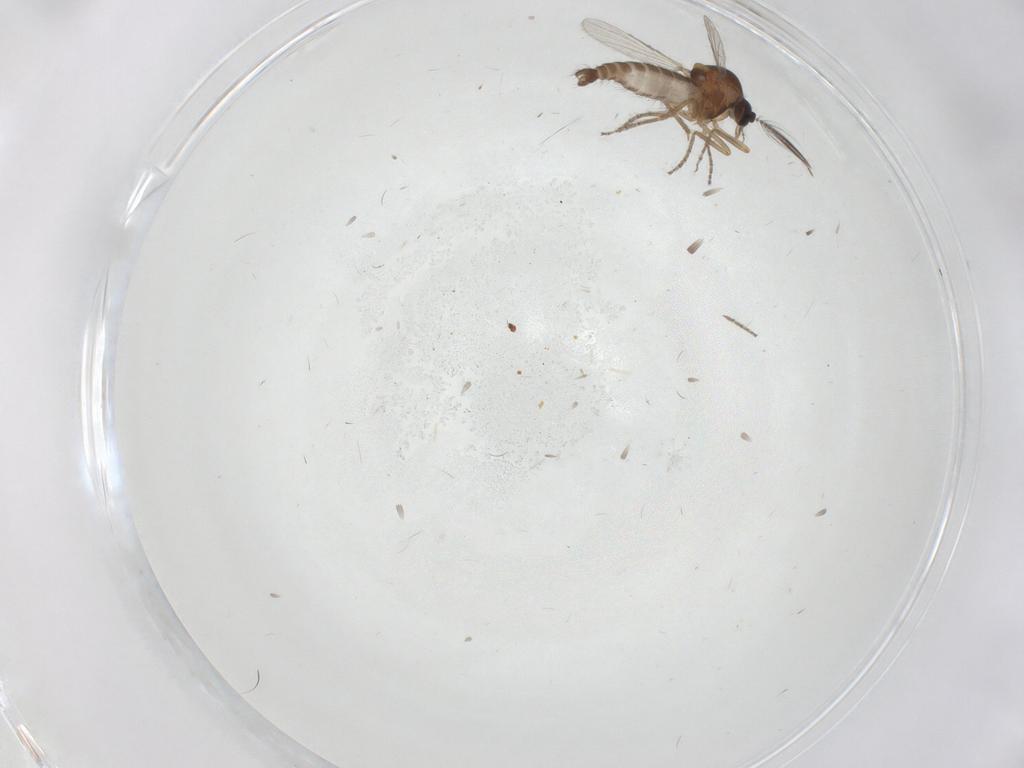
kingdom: Animalia
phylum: Arthropoda
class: Insecta
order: Diptera
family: Ceratopogonidae
